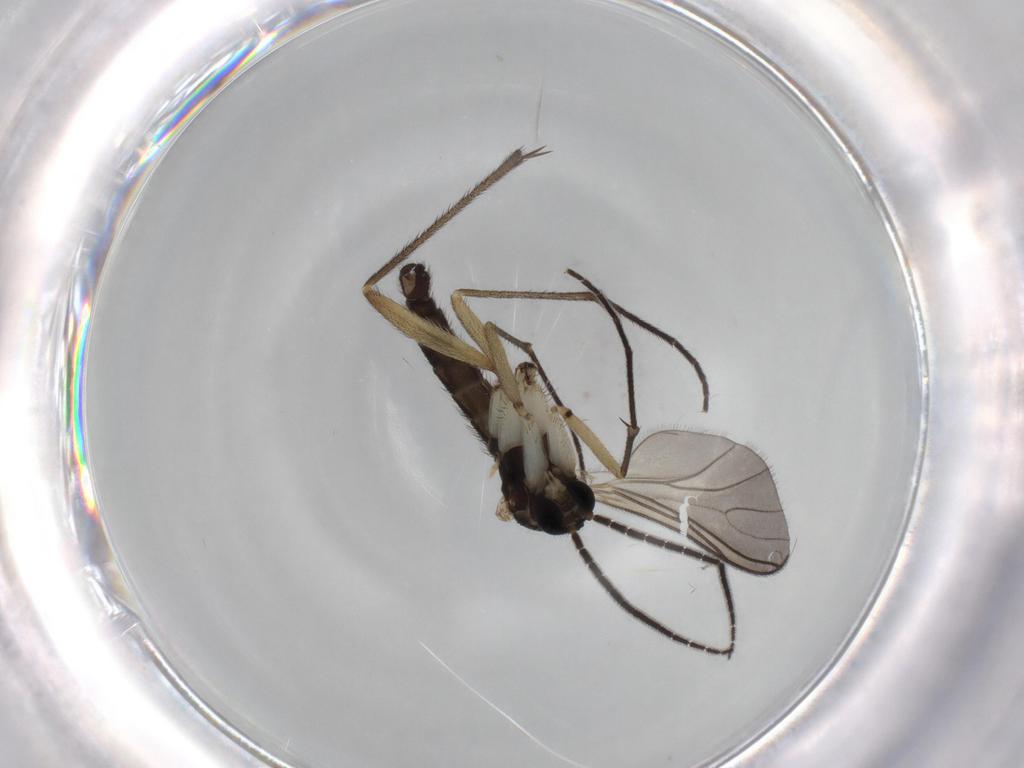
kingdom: Animalia
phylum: Arthropoda
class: Insecta
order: Diptera
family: Sciaridae
